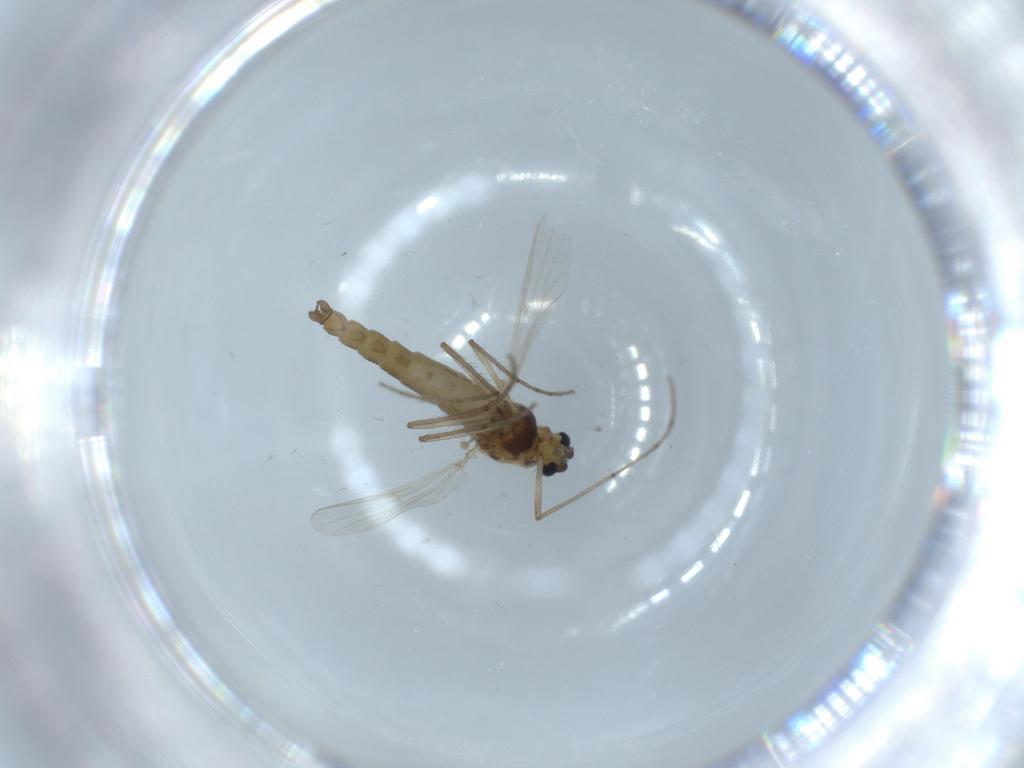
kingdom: Animalia
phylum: Arthropoda
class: Insecta
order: Diptera
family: Chironomidae
